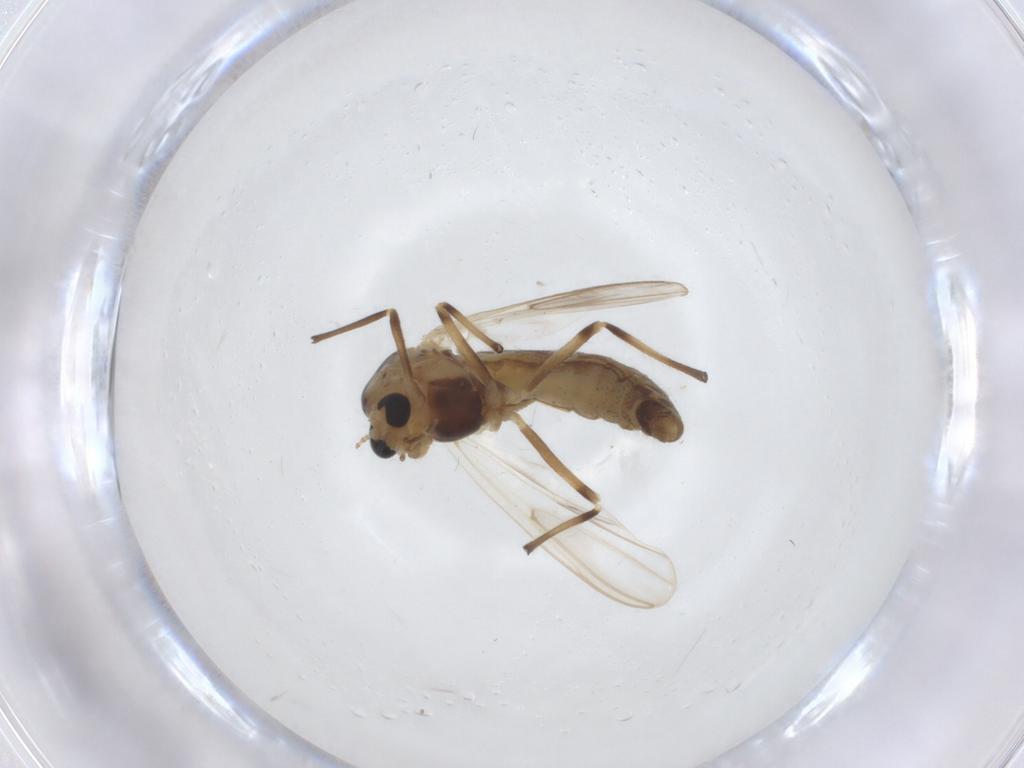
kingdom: Animalia
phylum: Arthropoda
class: Insecta
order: Diptera
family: Chironomidae
